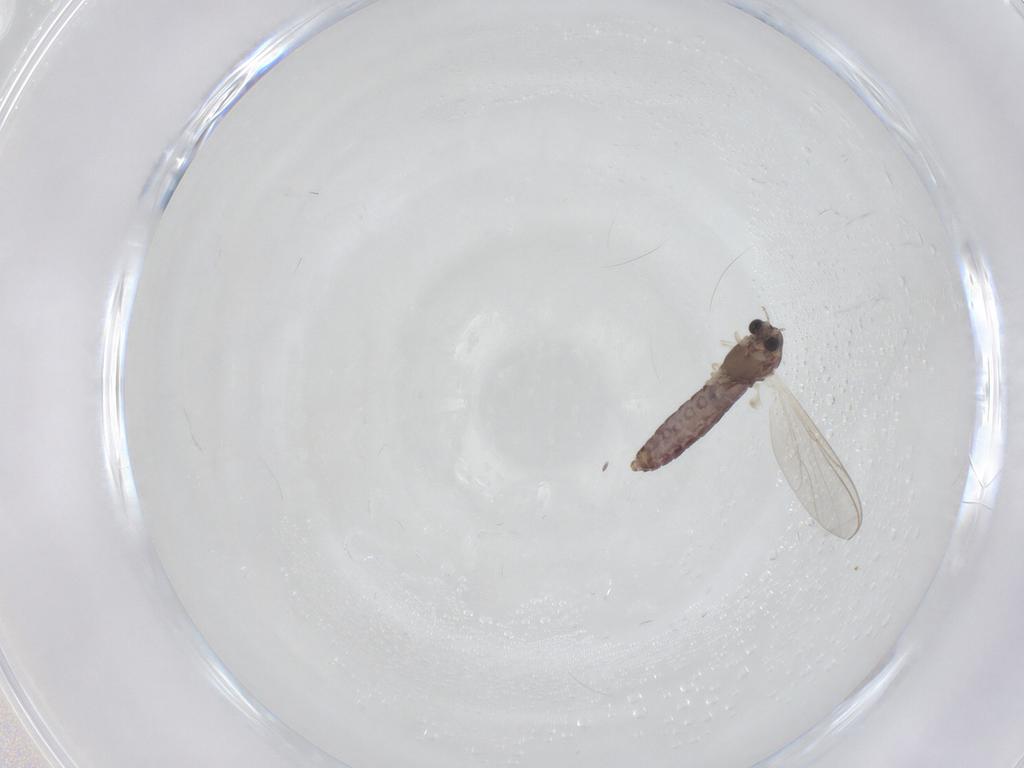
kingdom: Animalia
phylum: Arthropoda
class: Insecta
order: Diptera
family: Chironomidae
